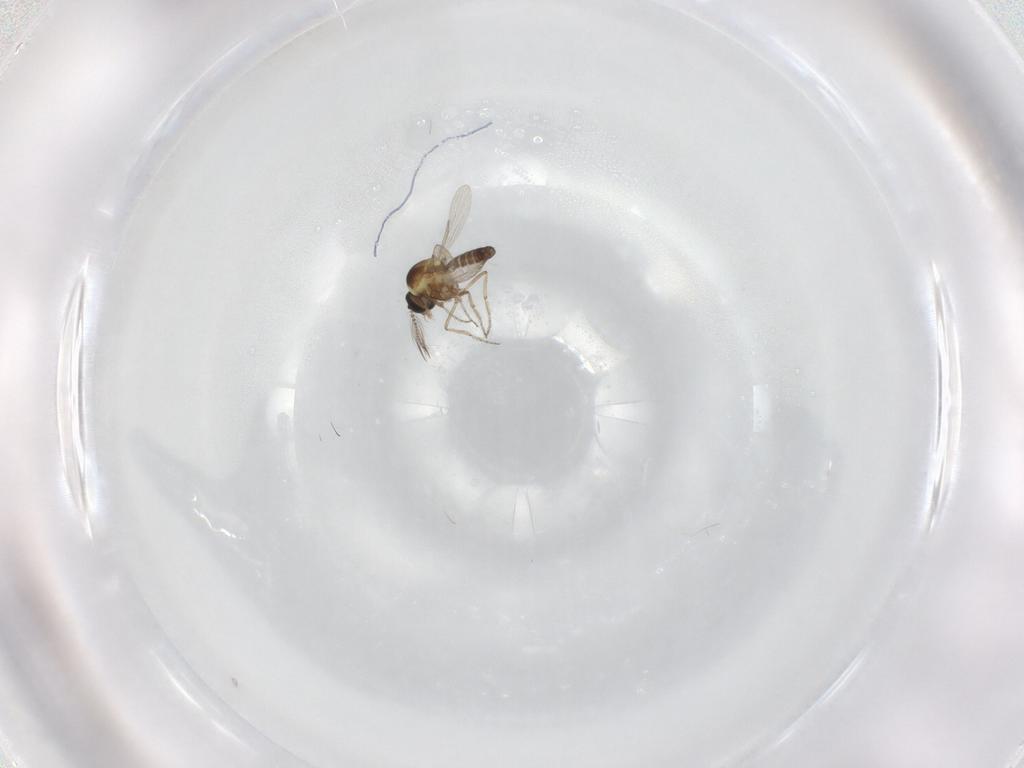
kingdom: Animalia
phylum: Arthropoda
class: Insecta
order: Diptera
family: Ceratopogonidae
